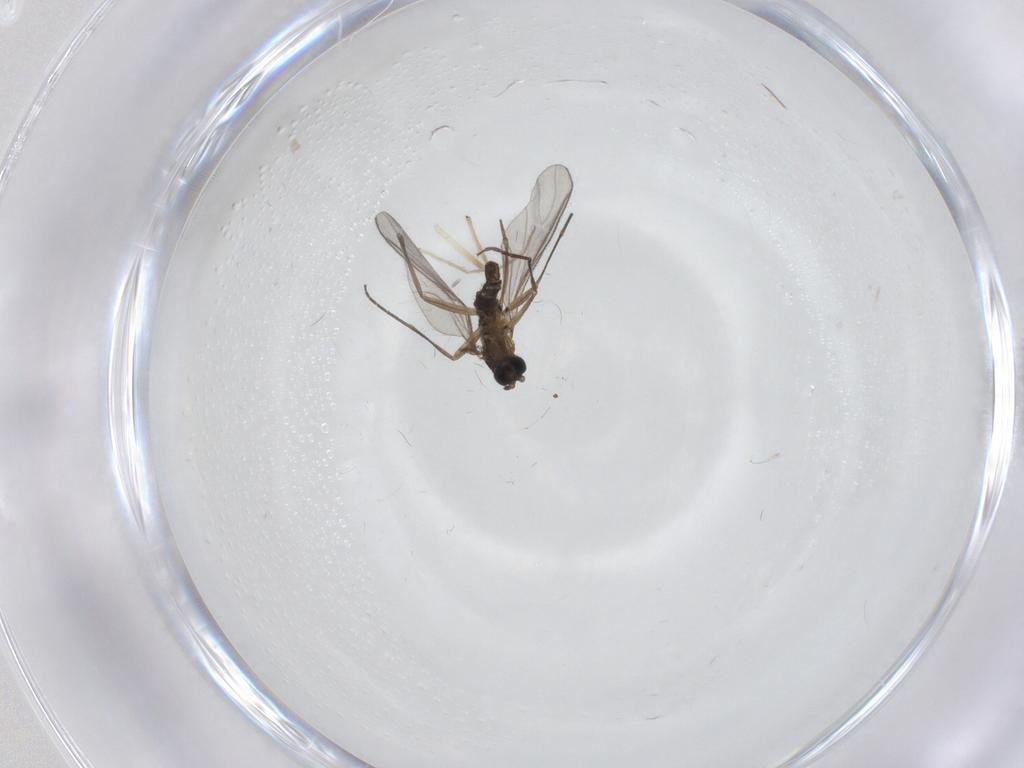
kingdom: Animalia
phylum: Arthropoda
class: Insecta
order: Diptera
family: Sciaridae
